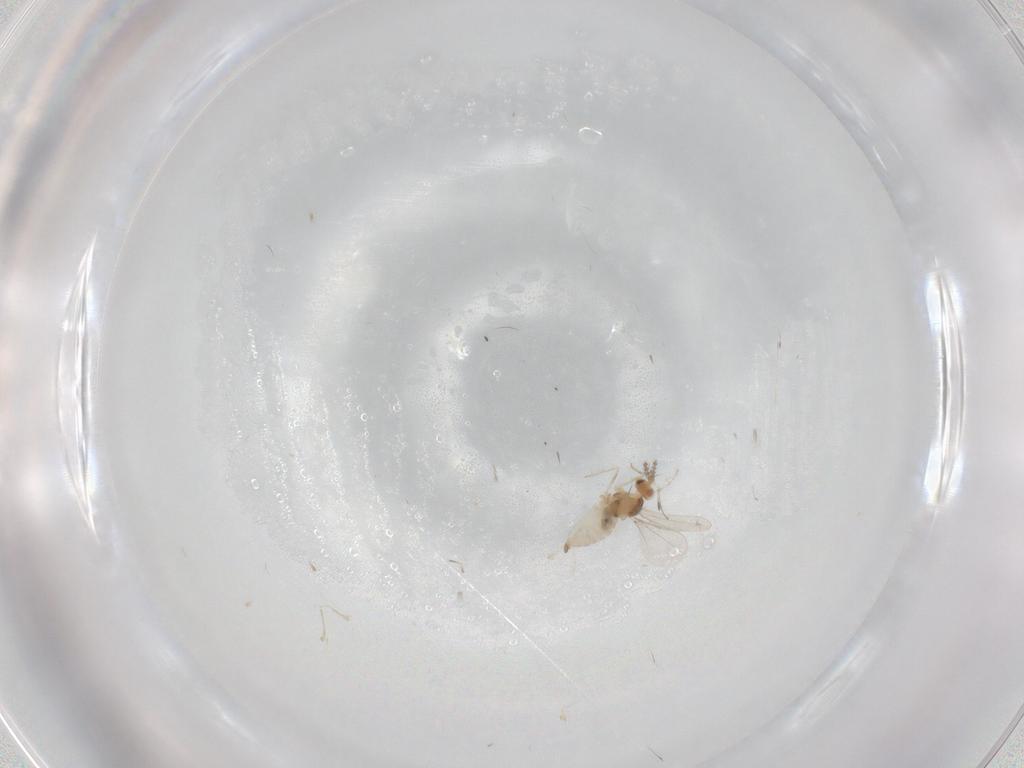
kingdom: Animalia
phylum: Arthropoda
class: Insecta
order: Diptera
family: Cecidomyiidae
